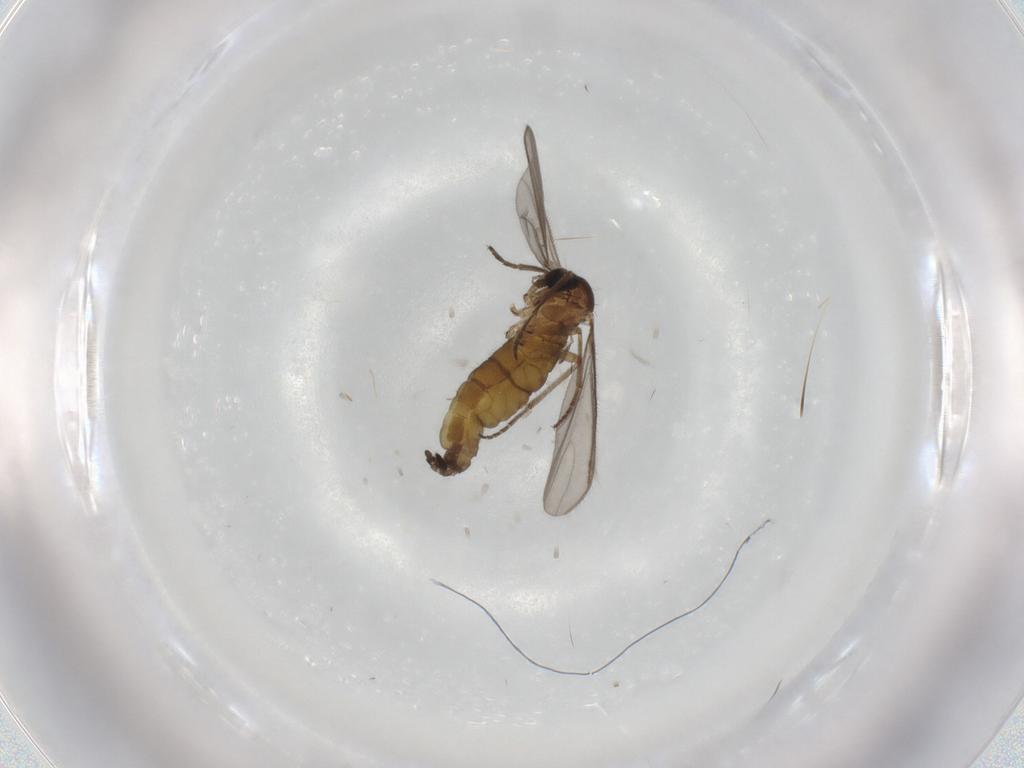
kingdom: Animalia
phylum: Arthropoda
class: Insecta
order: Diptera
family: Sciaridae
